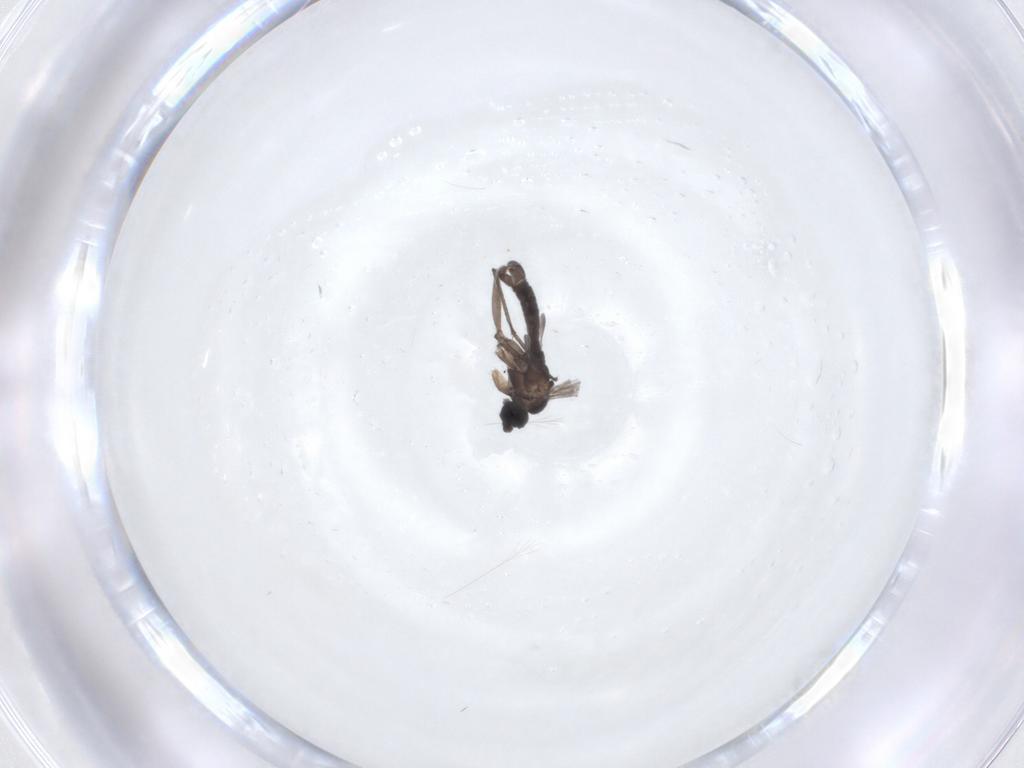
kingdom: Animalia
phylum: Arthropoda
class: Insecta
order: Diptera
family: Sciaridae
